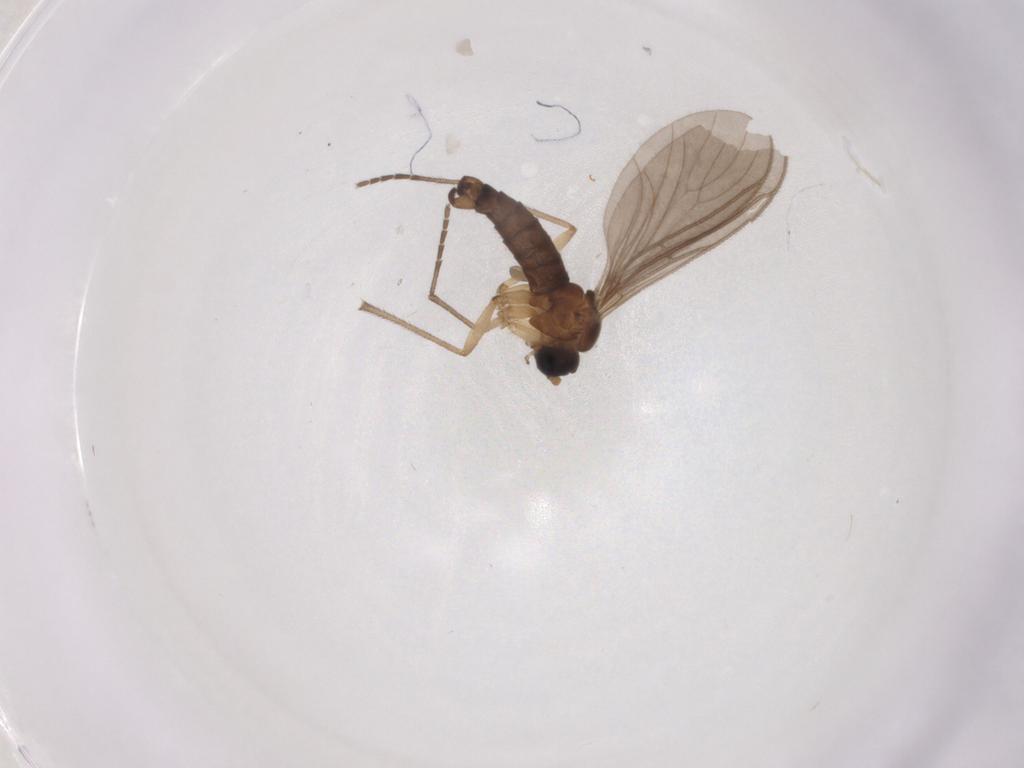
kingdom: Animalia
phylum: Arthropoda
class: Insecta
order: Diptera
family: Sciaridae
